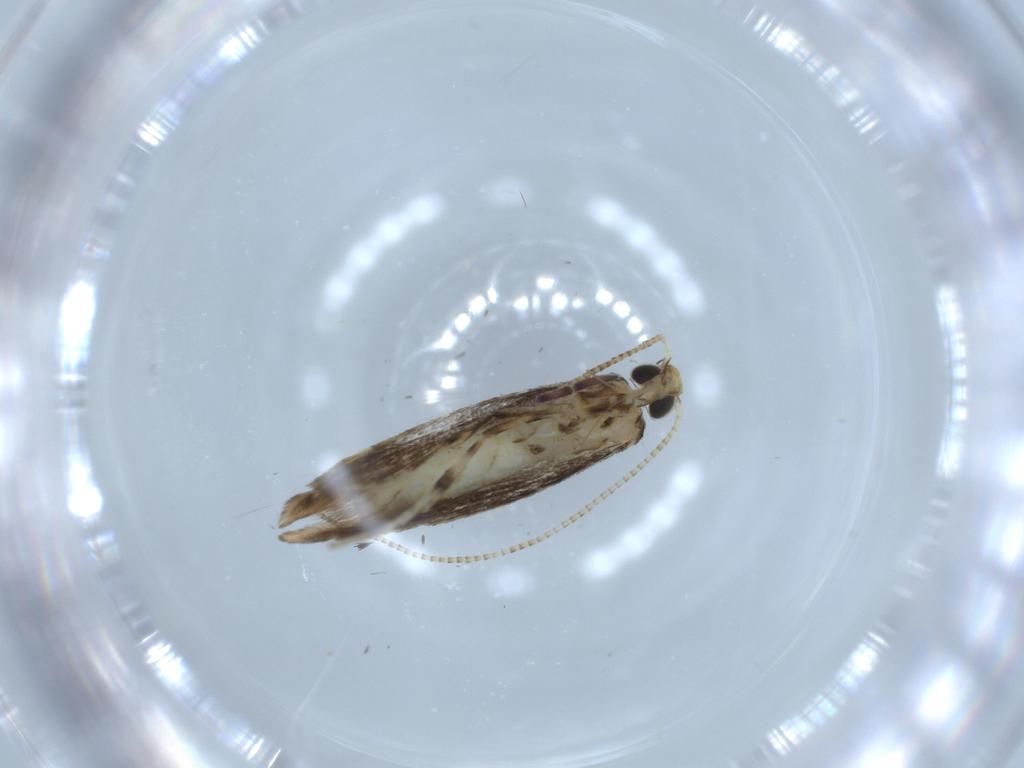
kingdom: Animalia
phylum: Arthropoda
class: Insecta
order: Lepidoptera
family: Gracillariidae
